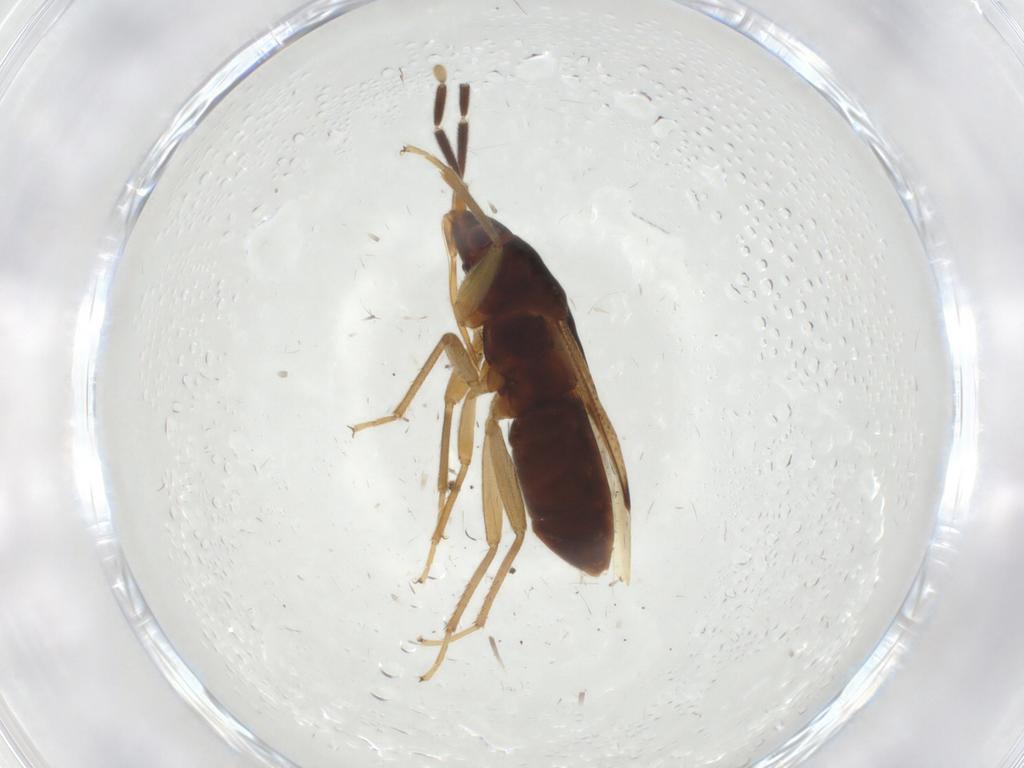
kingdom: Animalia
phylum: Arthropoda
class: Insecta
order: Hemiptera
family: Rhyparochromidae
